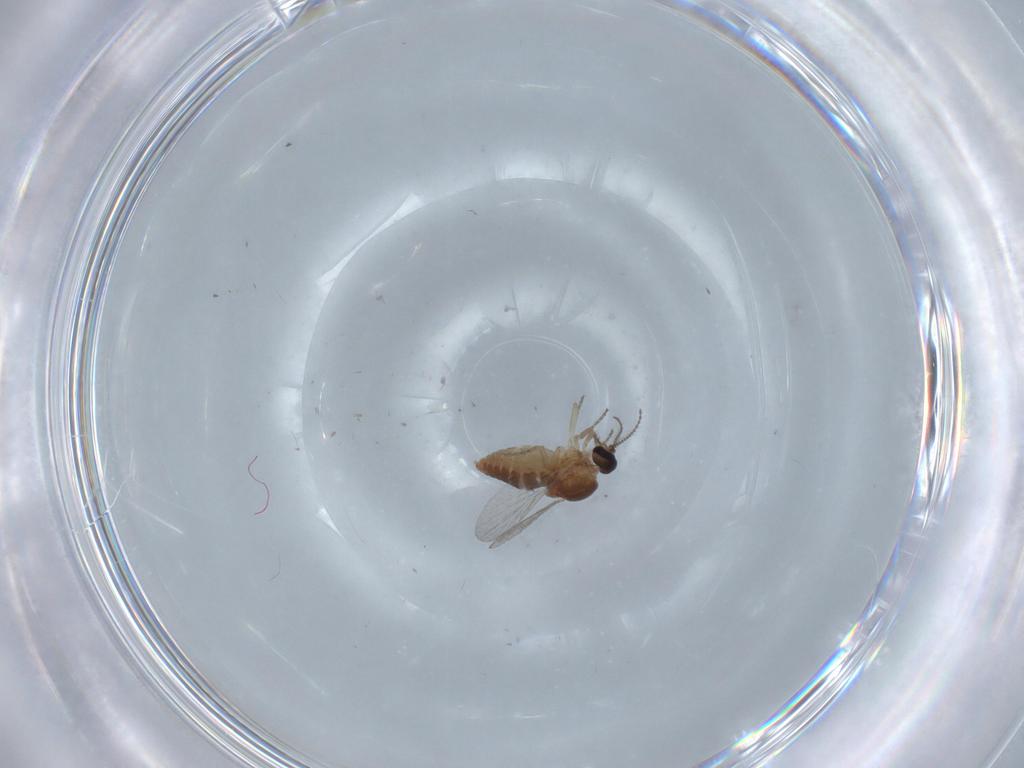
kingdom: Animalia
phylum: Arthropoda
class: Insecta
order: Diptera
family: Ceratopogonidae
